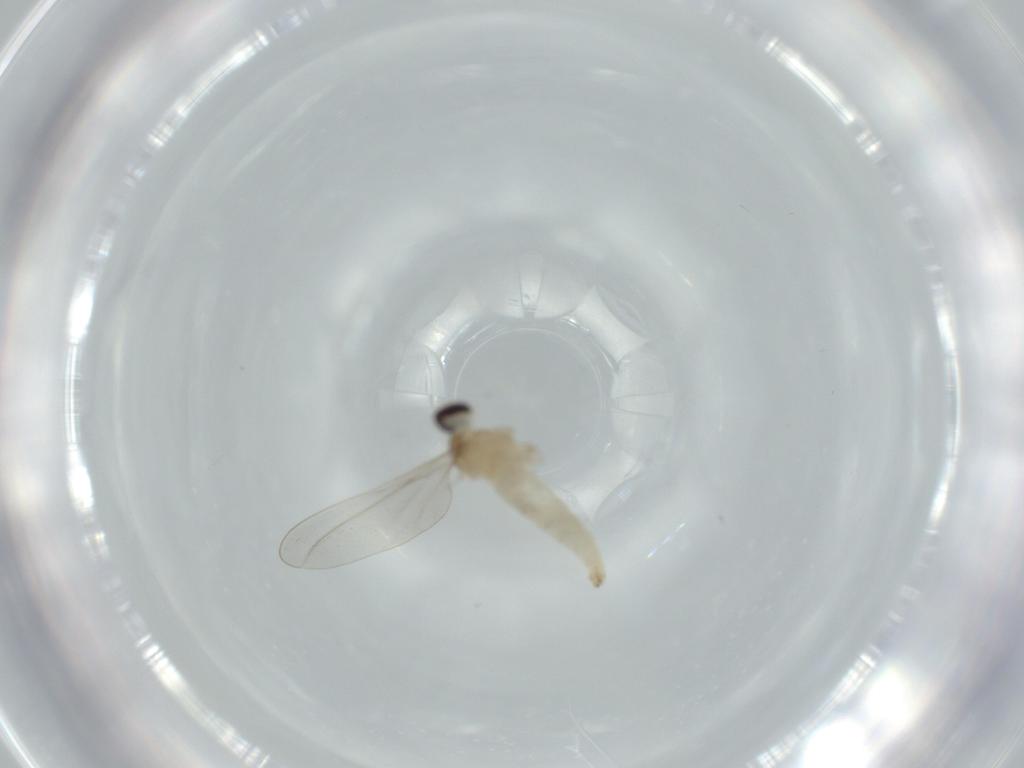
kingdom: Animalia
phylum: Arthropoda
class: Insecta
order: Diptera
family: Cecidomyiidae
